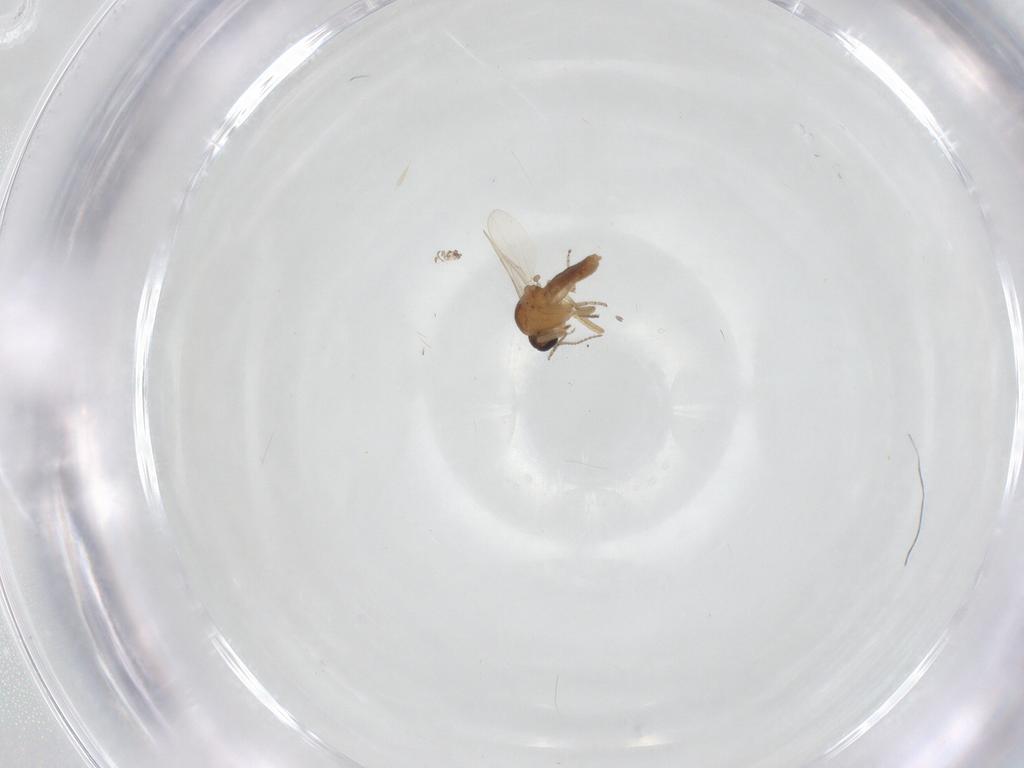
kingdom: Animalia
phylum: Arthropoda
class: Insecta
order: Diptera
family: Ceratopogonidae
